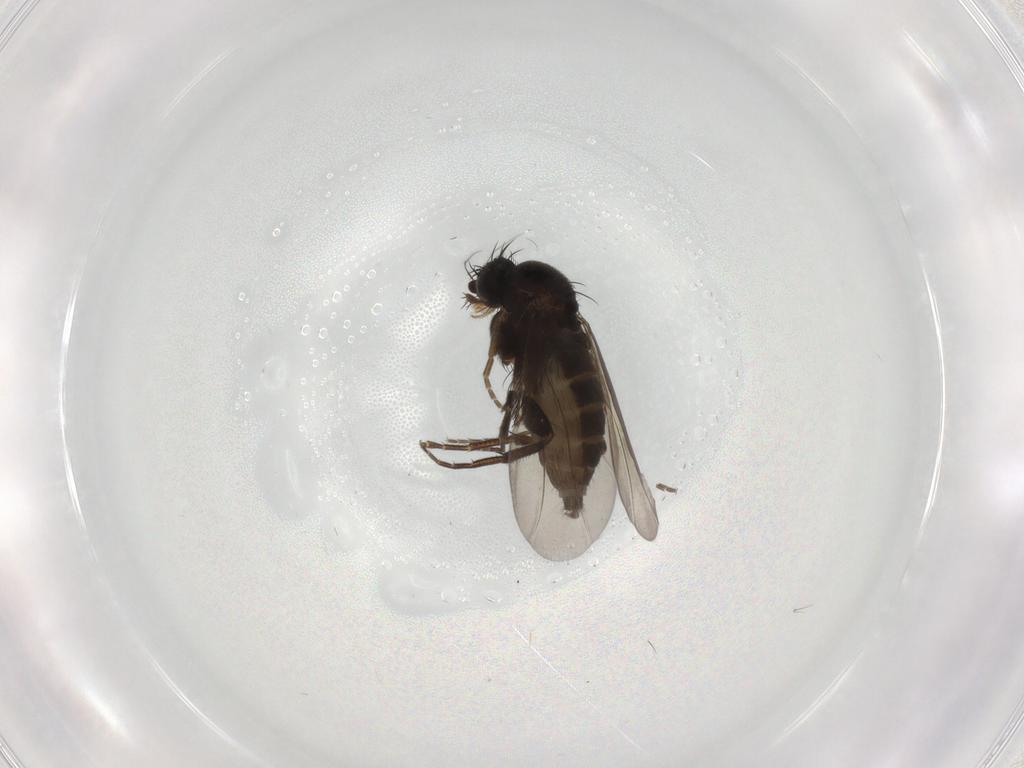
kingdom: Animalia
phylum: Arthropoda
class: Insecta
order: Diptera
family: Phoridae
